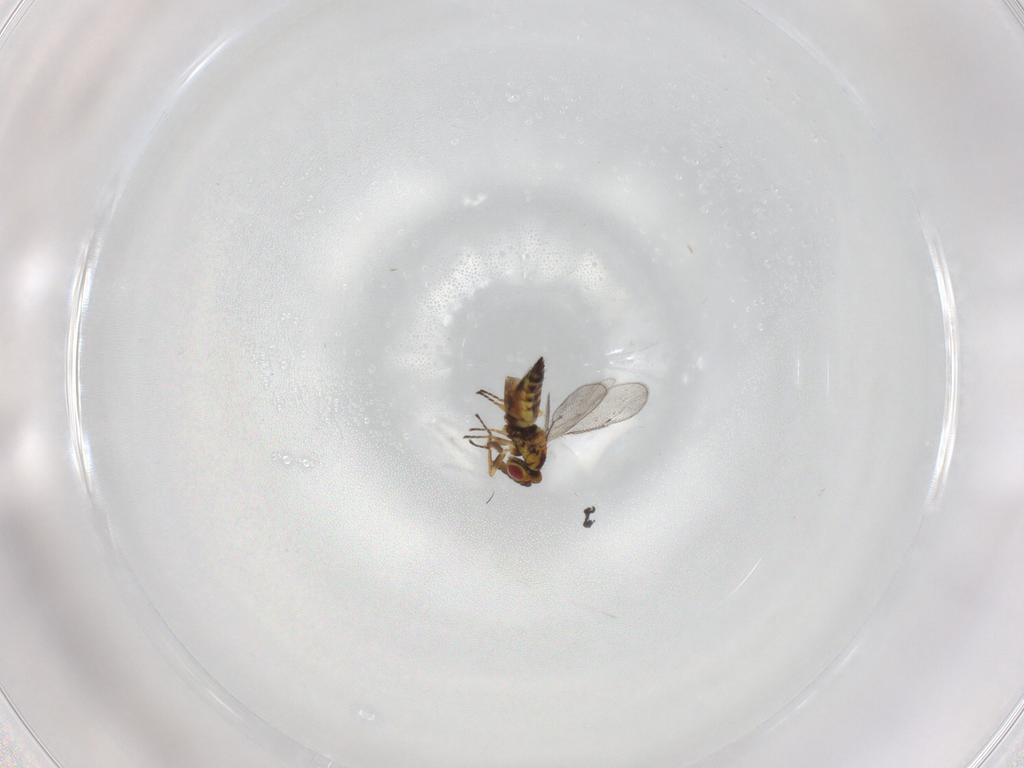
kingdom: Animalia
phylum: Arthropoda
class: Insecta
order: Hymenoptera
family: Eulophidae
